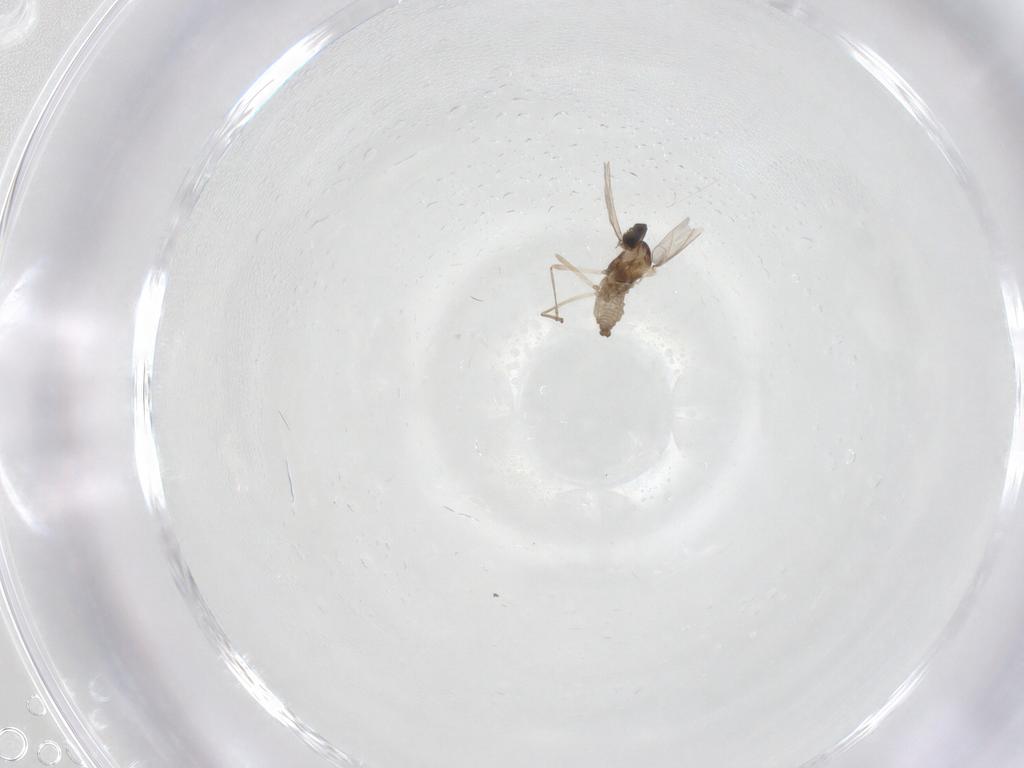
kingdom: Animalia
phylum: Arthropoda
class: Insecta
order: Diptera
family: Cecidomyiidae
